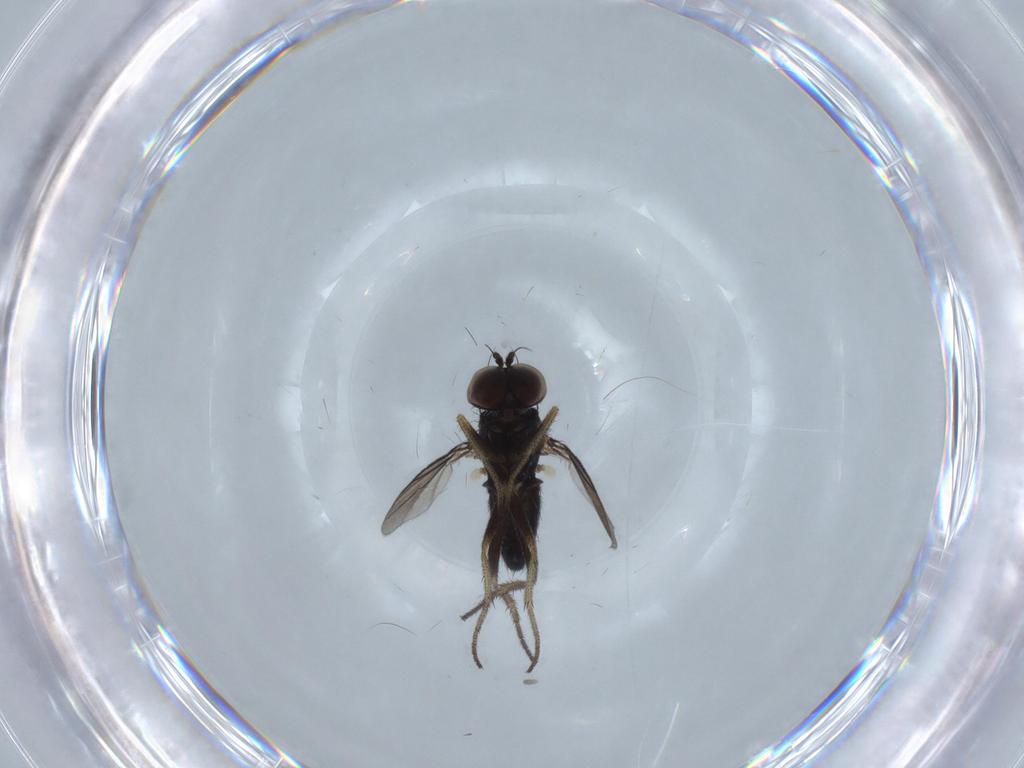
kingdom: Animalia
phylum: Arthropoda
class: Insecta
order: Diptera
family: Dolichopodidae
